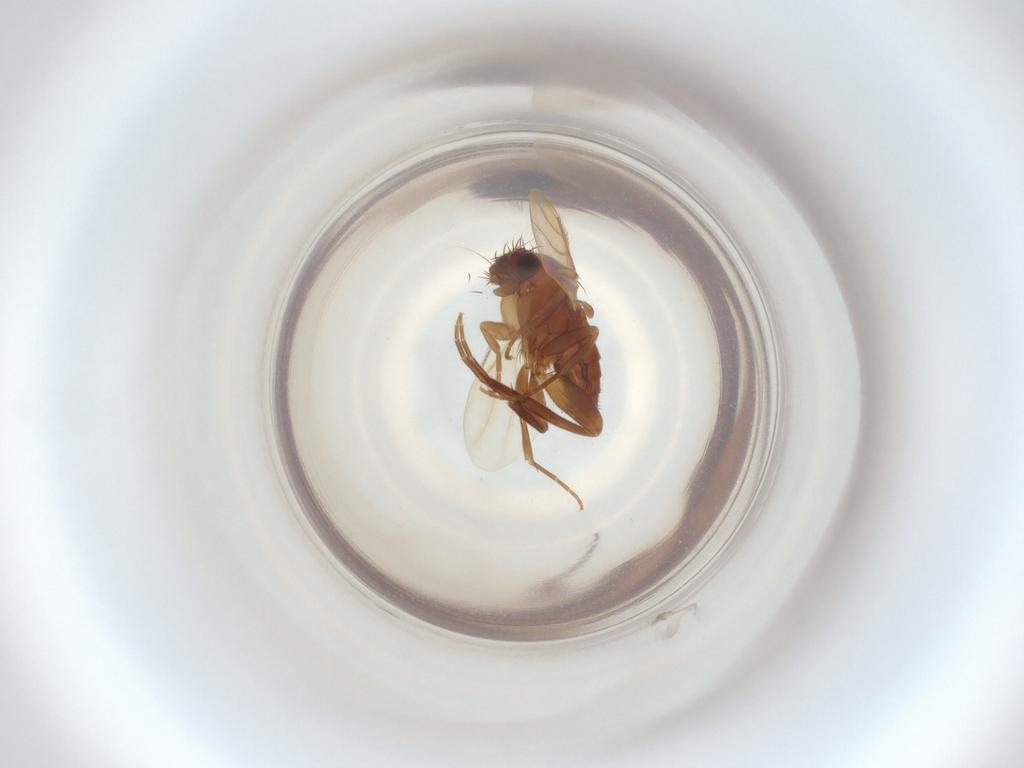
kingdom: Animalia
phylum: Arthropoda
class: Insecta
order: Diptera
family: Phoridae
